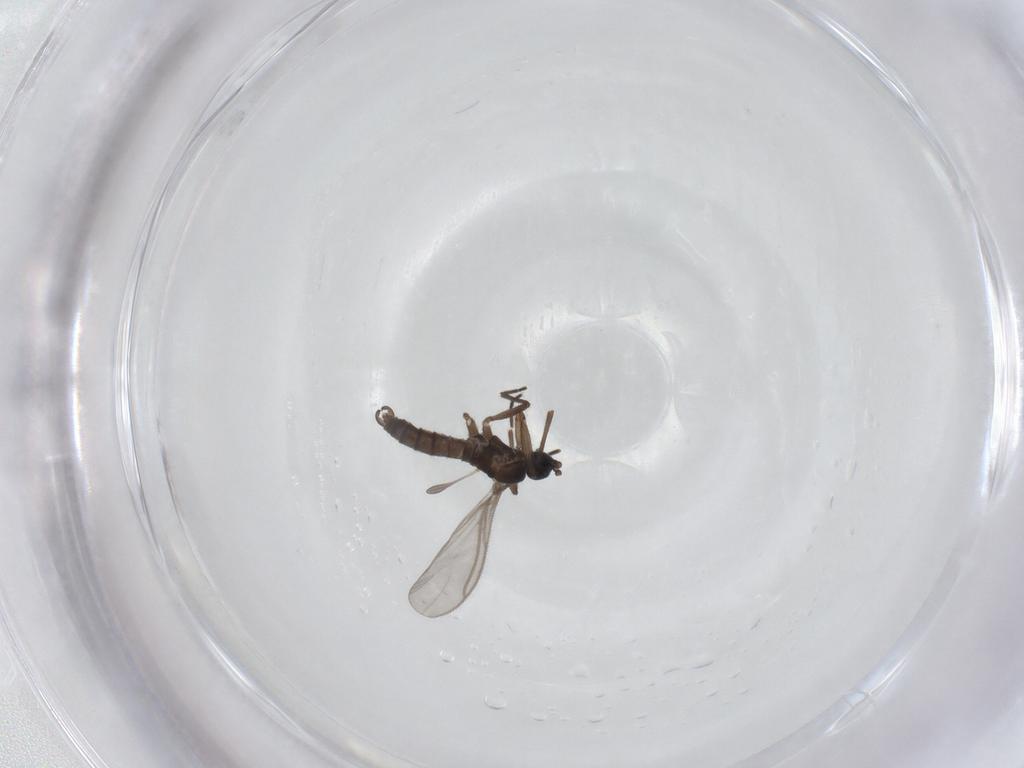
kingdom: Animalia
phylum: Arthropoda
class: Insecta
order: Diptera
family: Sciaridae
